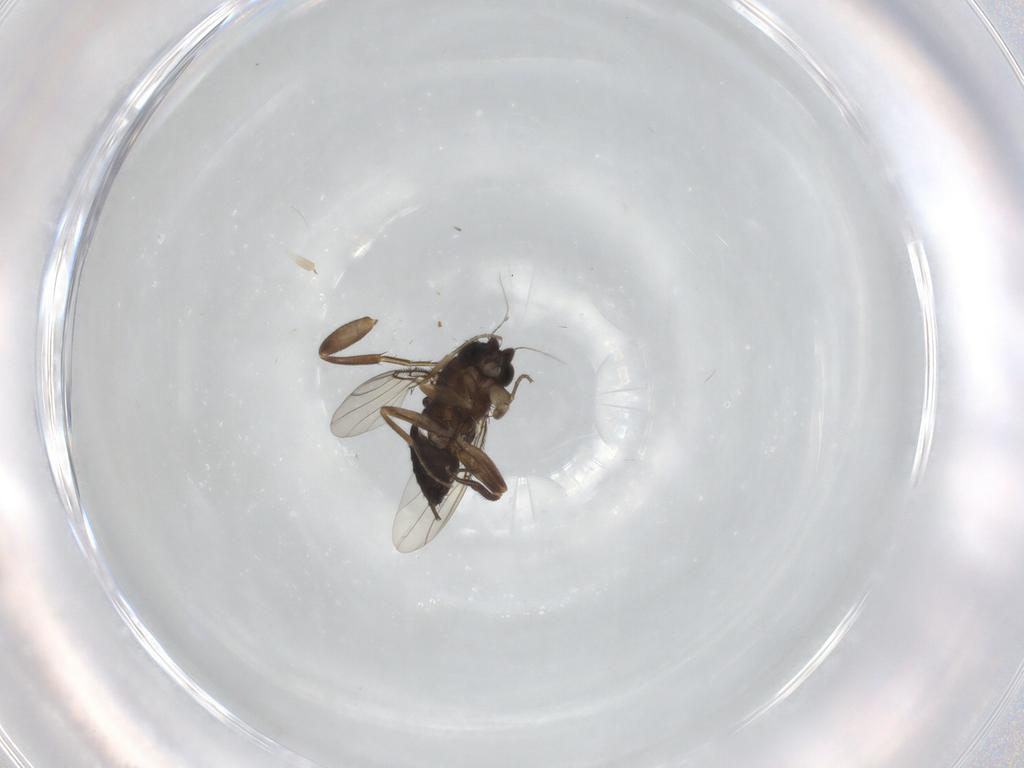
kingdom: Animalia
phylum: Arthropoda
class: Insecta
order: Diptera
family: Phoridae
